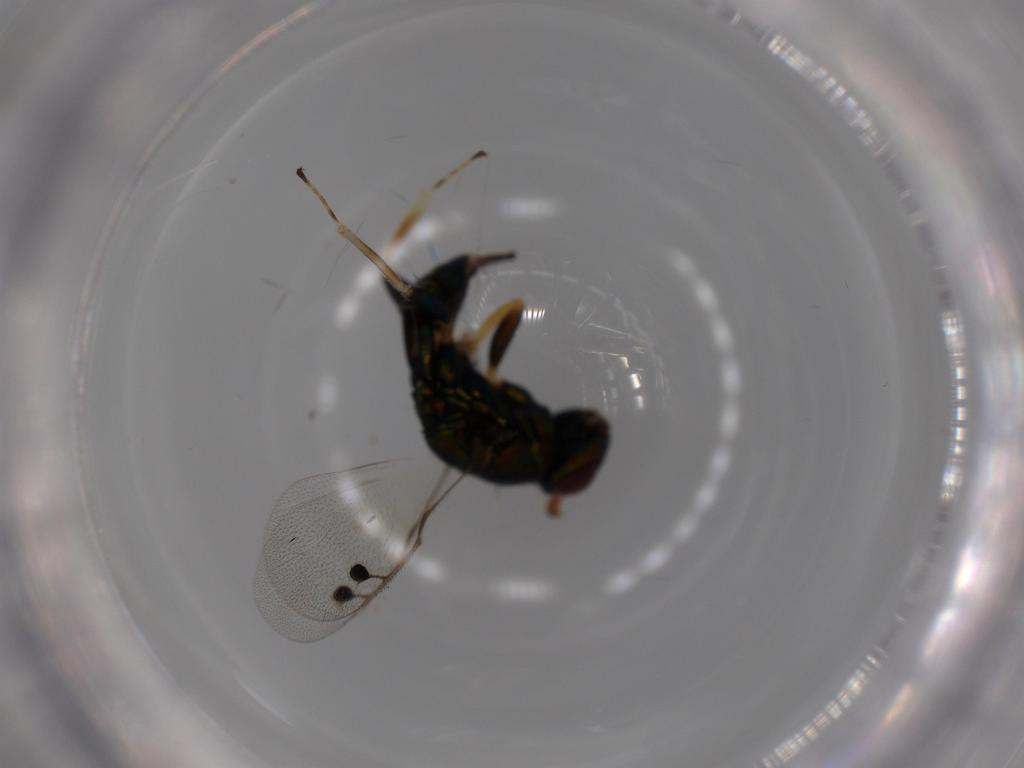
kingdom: Animalia
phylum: Arthropoda
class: Insecta
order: Hymenoptera
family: Pteromalidae
